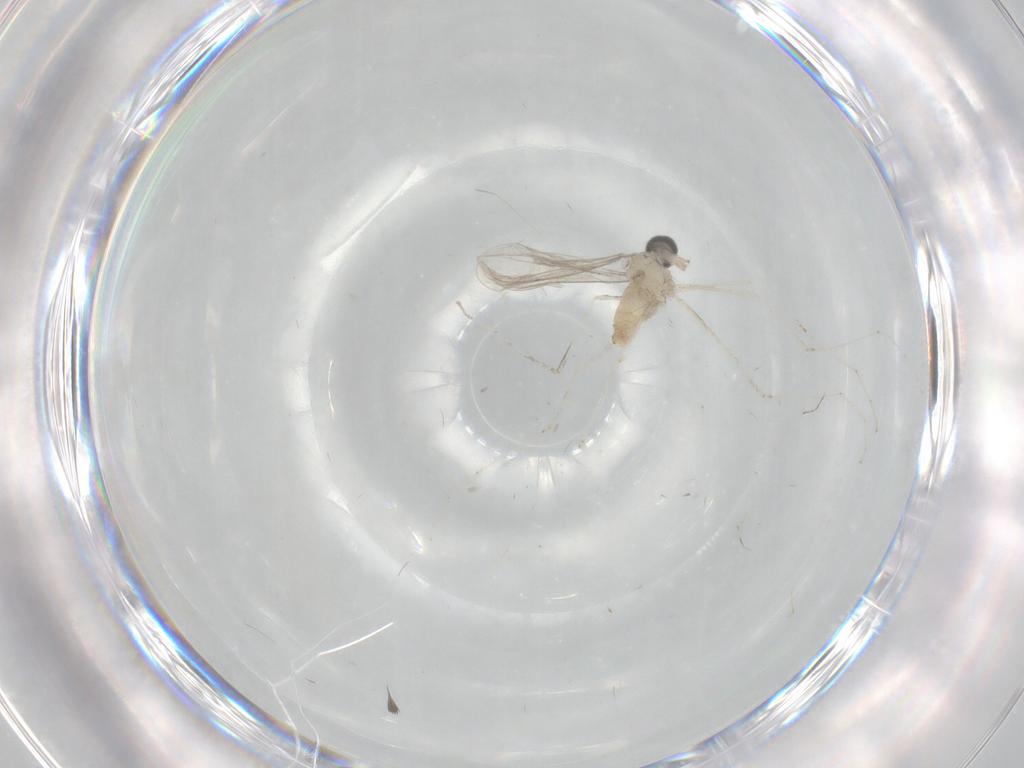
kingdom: Animalia
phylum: Arthropoda
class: Insecta
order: Diptera
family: Cecidomyiidae
